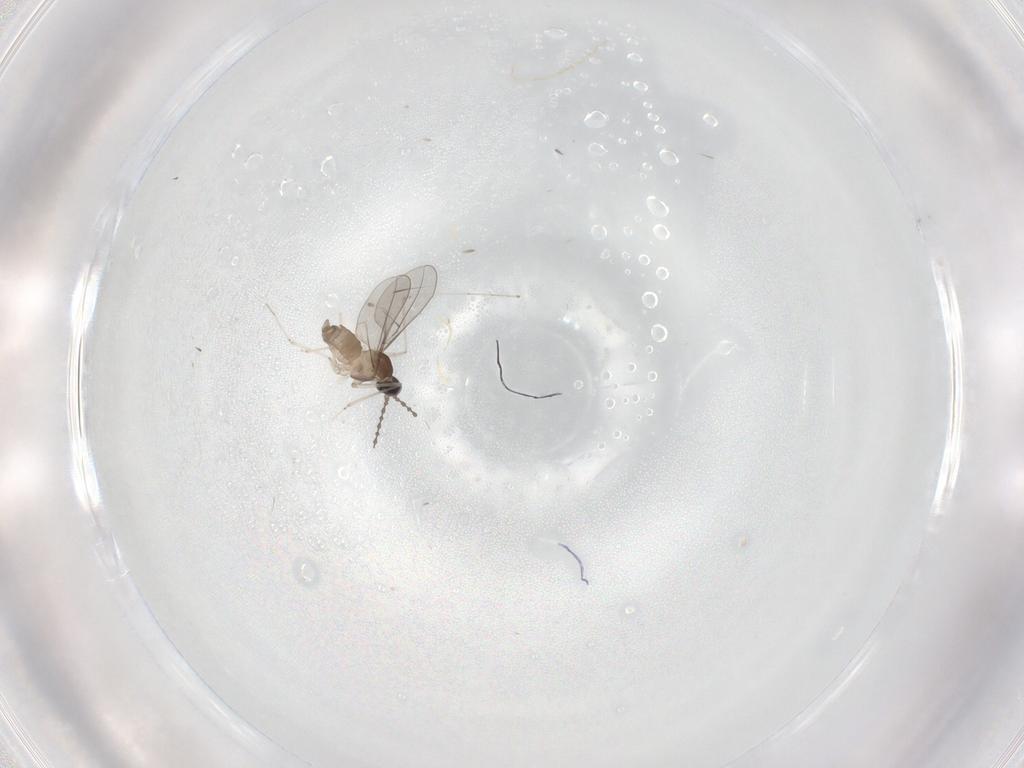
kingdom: Animalia
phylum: Arthropoda
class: Insecta
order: Diptera
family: Cecidomyiidae
